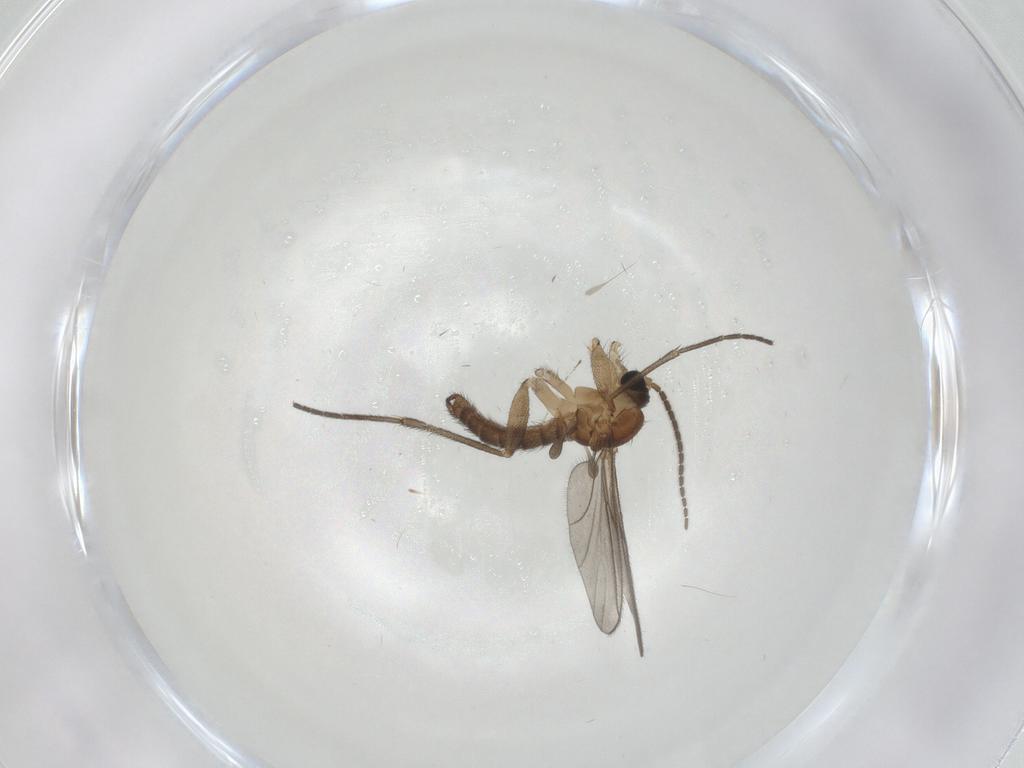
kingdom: Animalia
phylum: Arthropoda
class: Insecta
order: Diptera
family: Sciaridae
